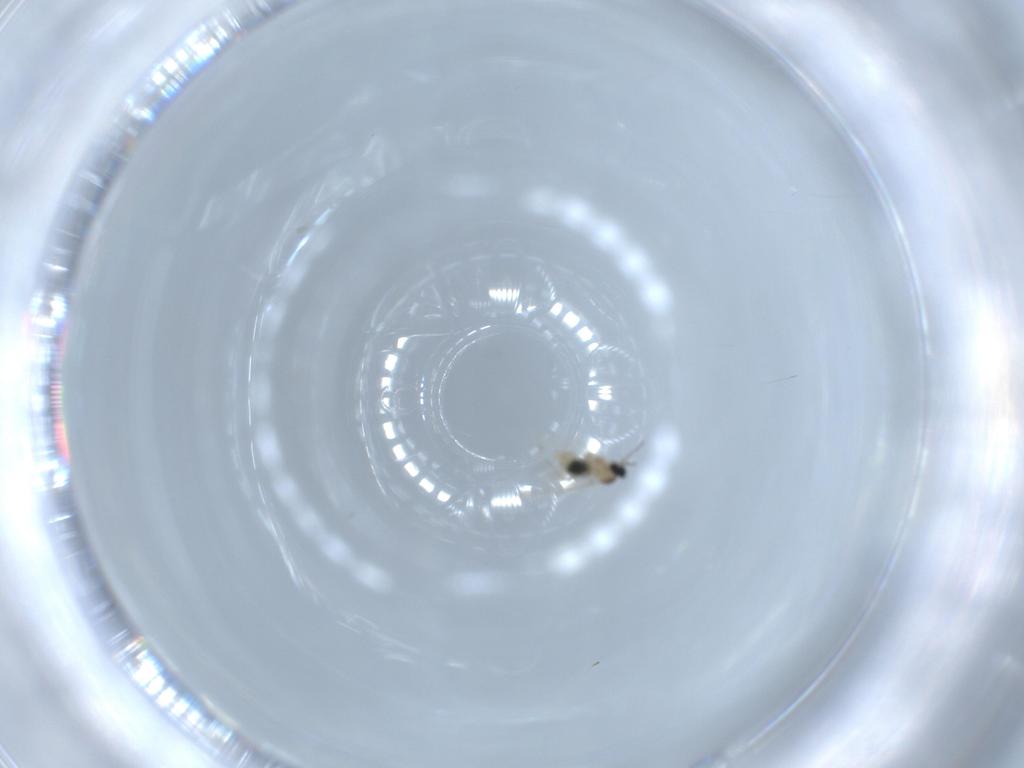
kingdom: Animalia
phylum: Arthropoda
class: Insecta
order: Diptera
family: Cecidomyiidae
